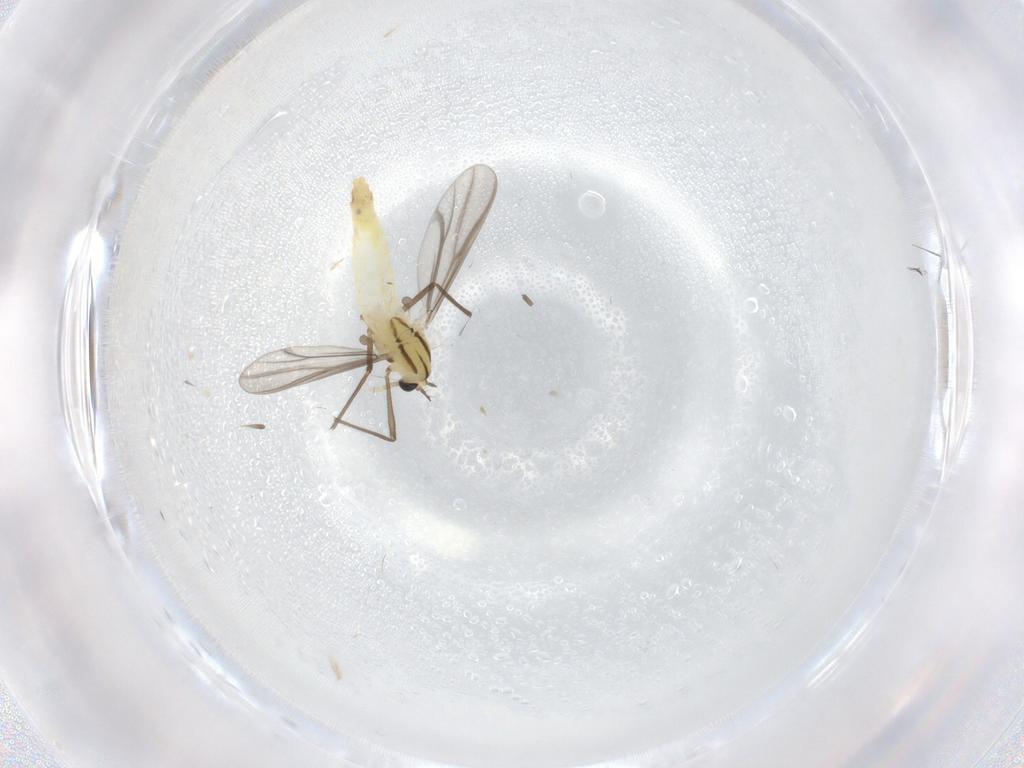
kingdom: Animalia
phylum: Arthropoda
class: Insecta
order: Diptera
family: Chironomidae
